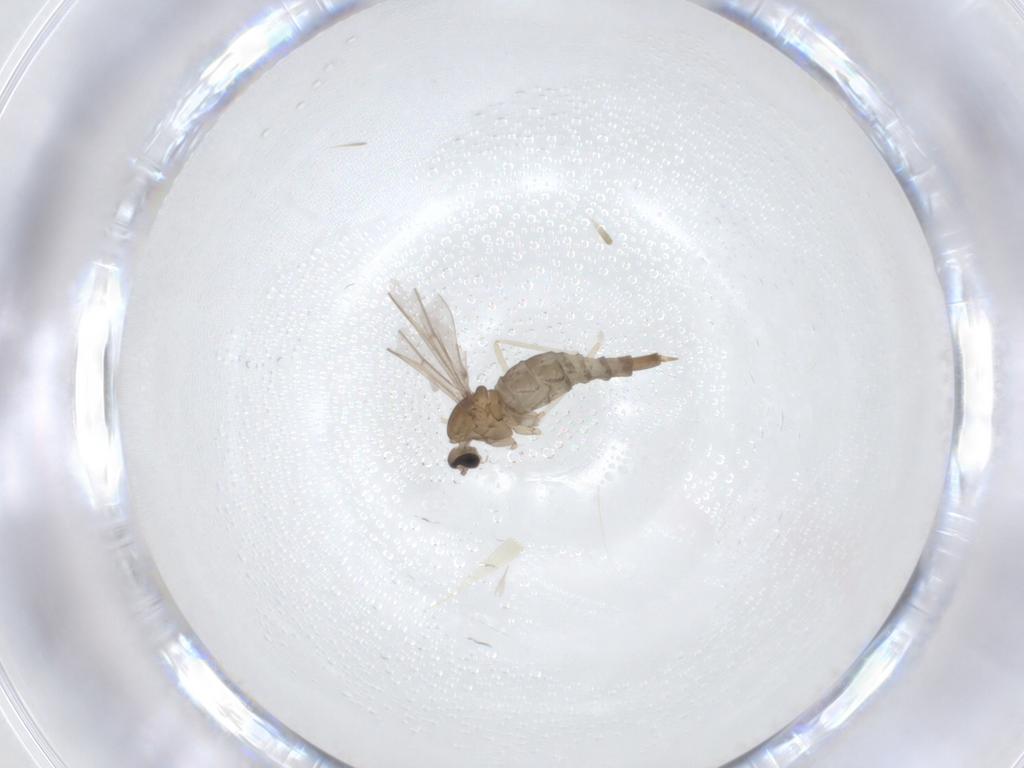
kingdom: Animalia
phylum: Arthropoda
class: Insecta
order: Diptera
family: Cecidomyiidae
